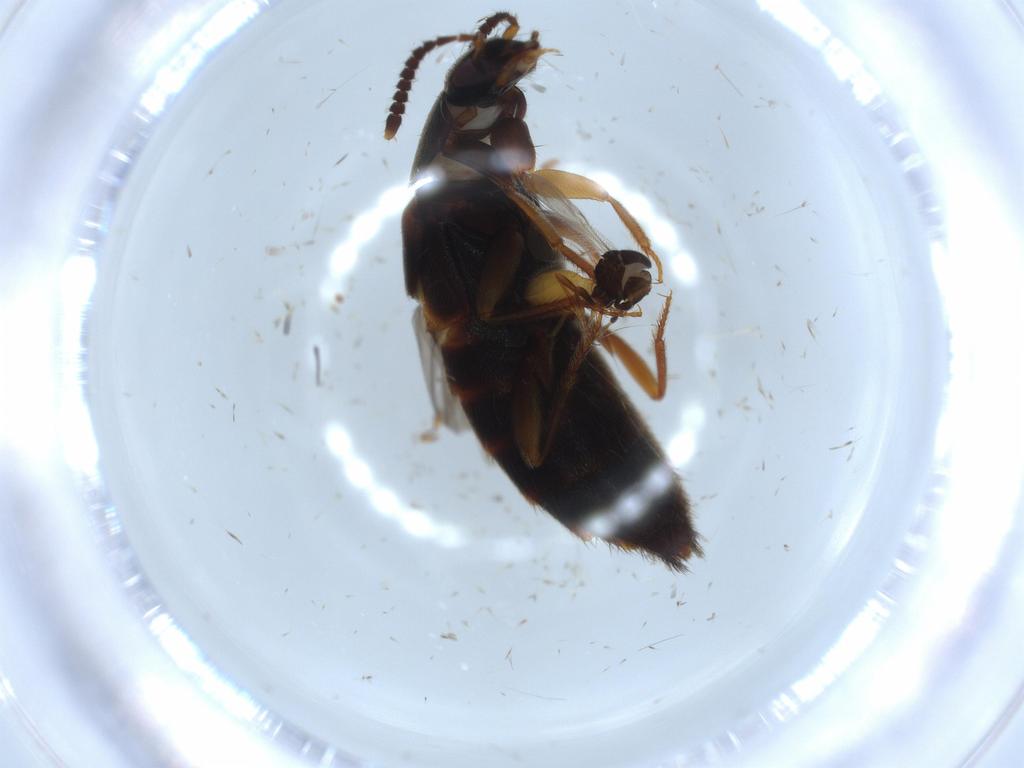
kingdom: Animalia
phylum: Arthropoda
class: Insecta
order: Coleoptera
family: Staphylinidae
